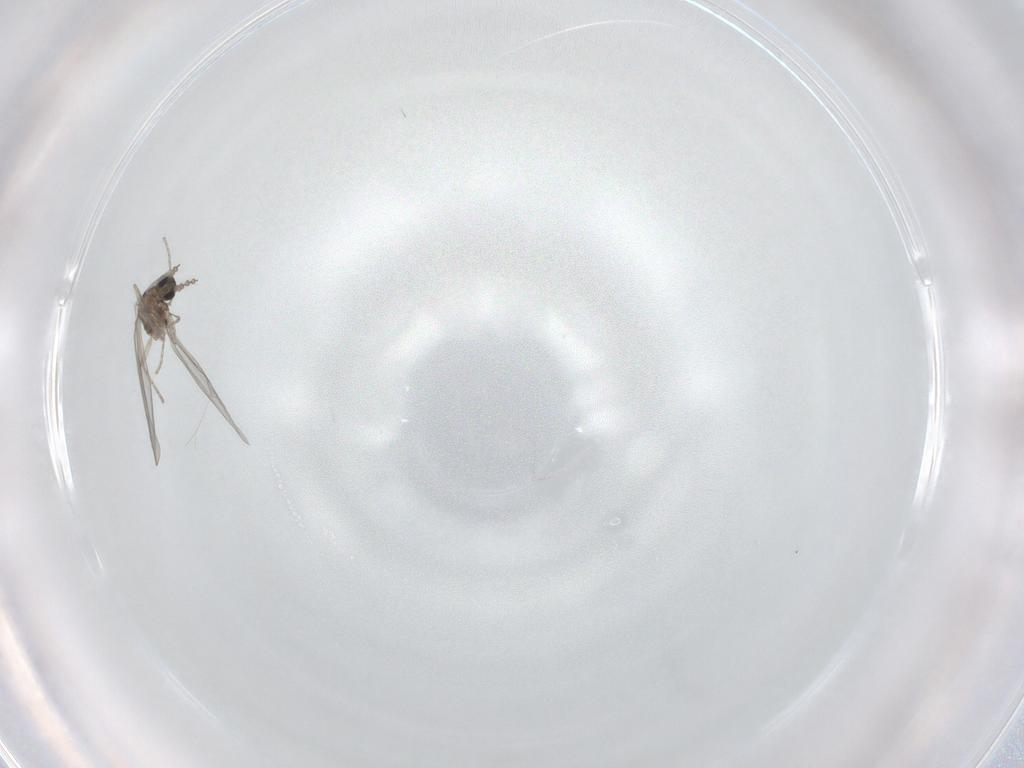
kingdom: Animalia
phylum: Arthropoda
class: Insecta
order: Diptera
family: Cecidomyiidae
